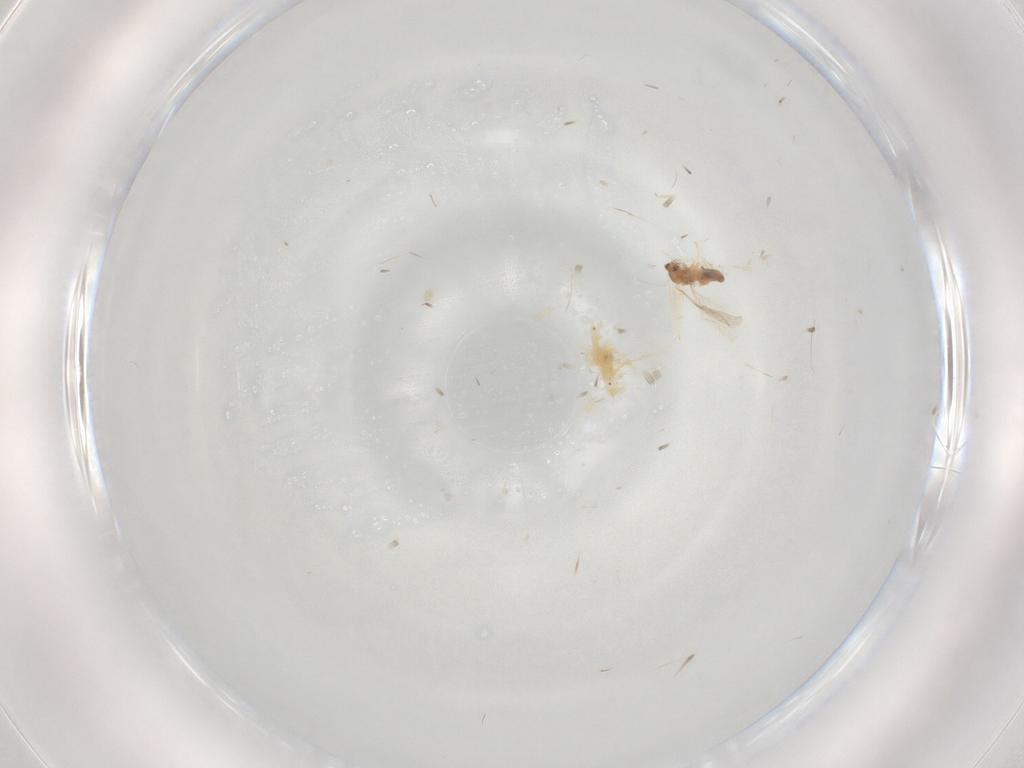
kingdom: Animalia
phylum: Arthropoda
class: Insecta
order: Diptera
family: Cecidomyiidae
